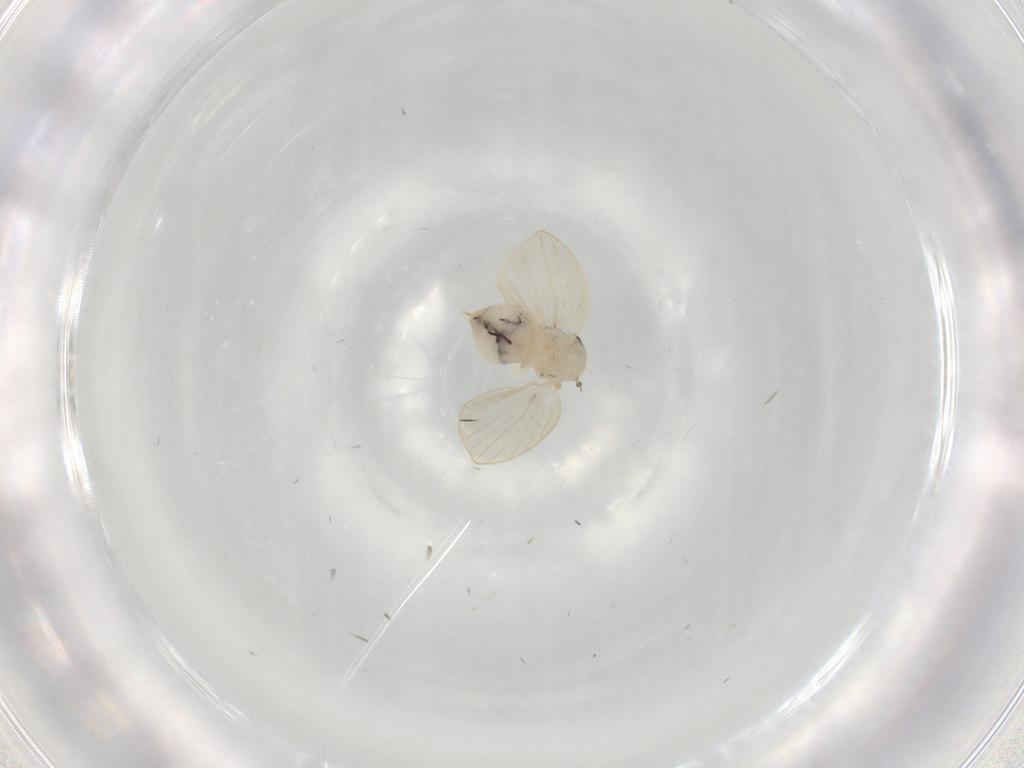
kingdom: Animalia
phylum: Arthropoda
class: Insecta
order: Diptera
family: Psychodidae
